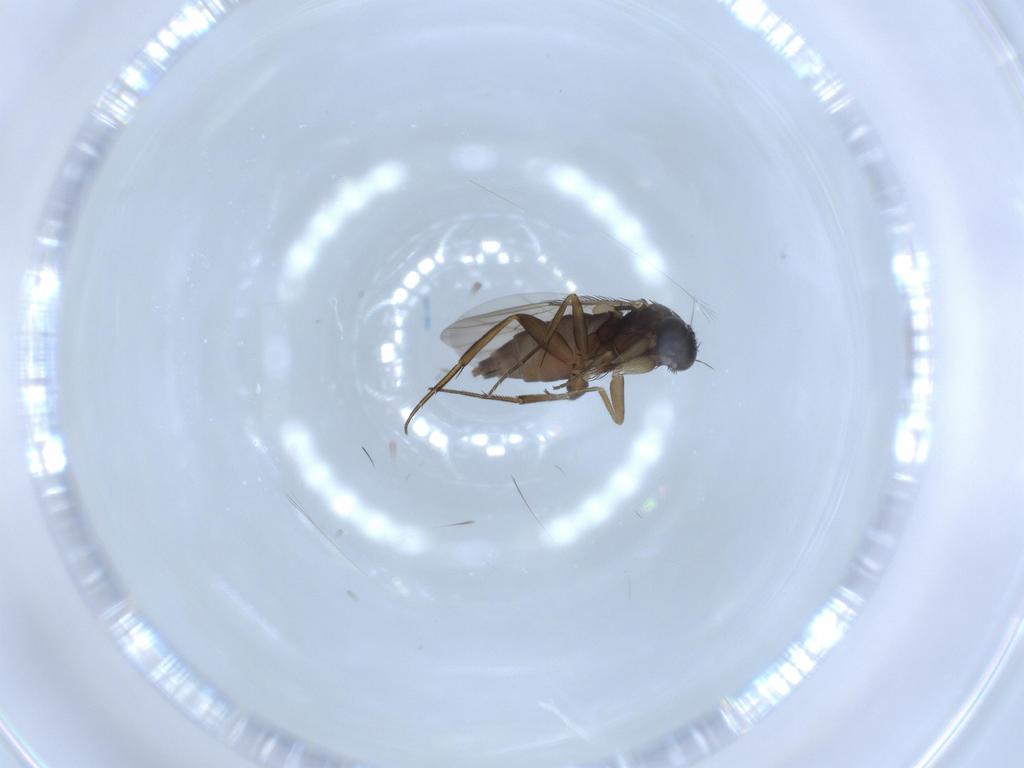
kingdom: Animalia
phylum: Arthropoda
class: Insecta
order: Diptera
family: Phoridae
